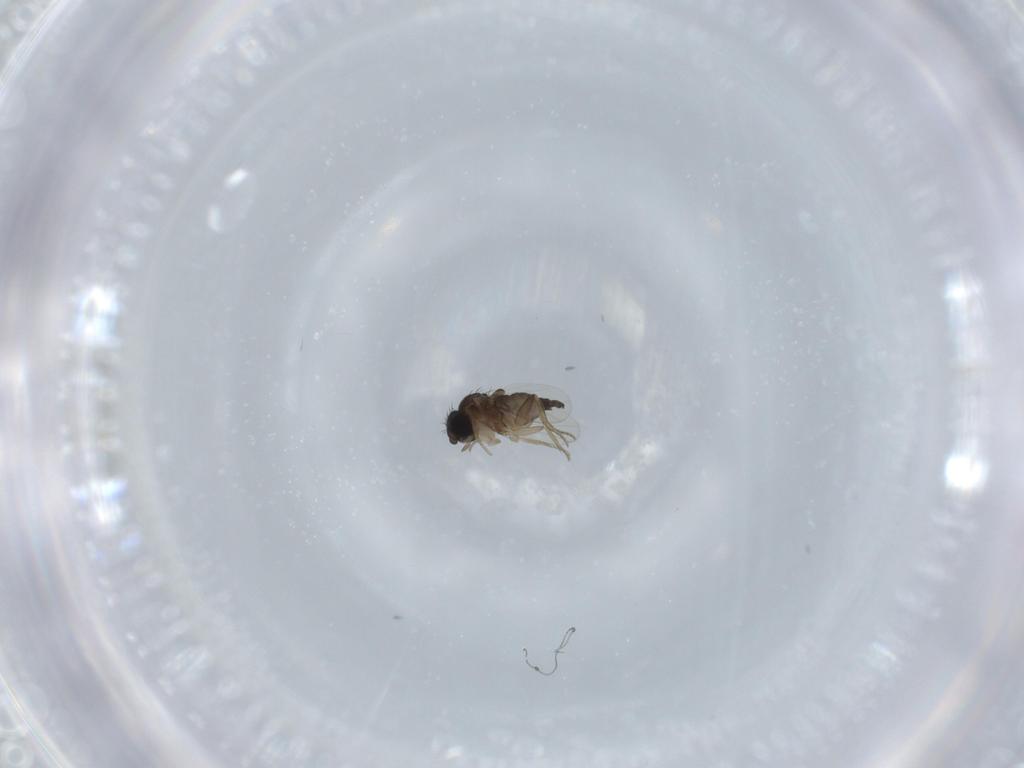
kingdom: Animalia
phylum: Arthropoda
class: Insecta
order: Diptera
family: Phoridae
